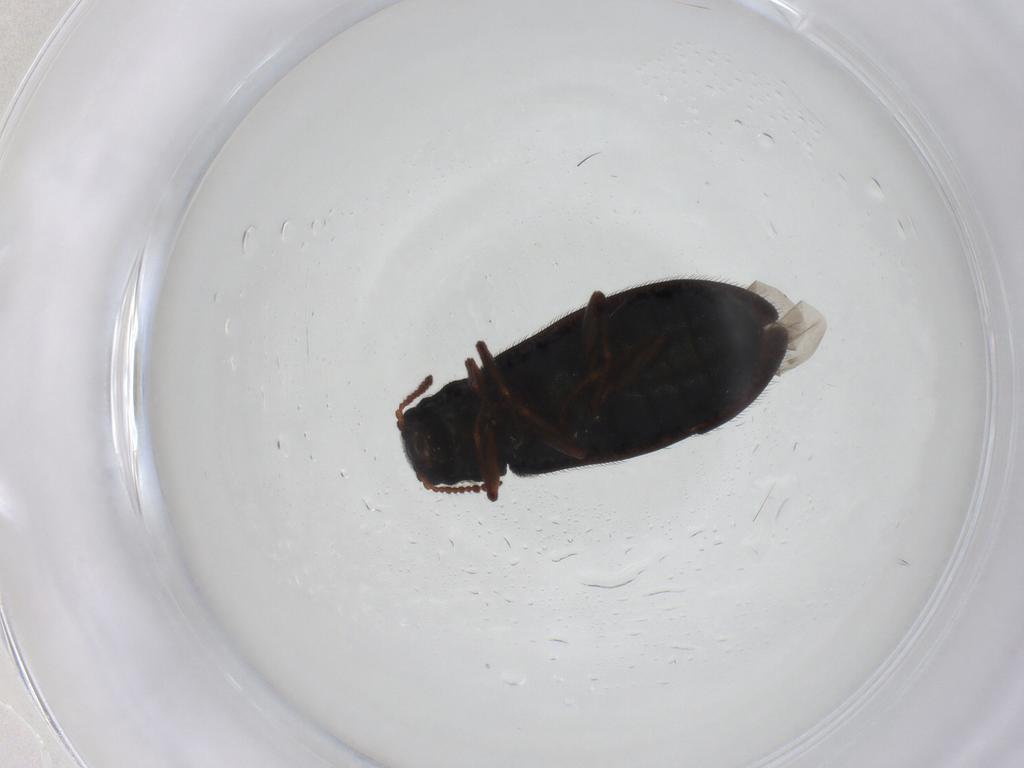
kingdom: Animalia
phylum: Arthropoda
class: Insecta
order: Coleoptera
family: Melyridae
